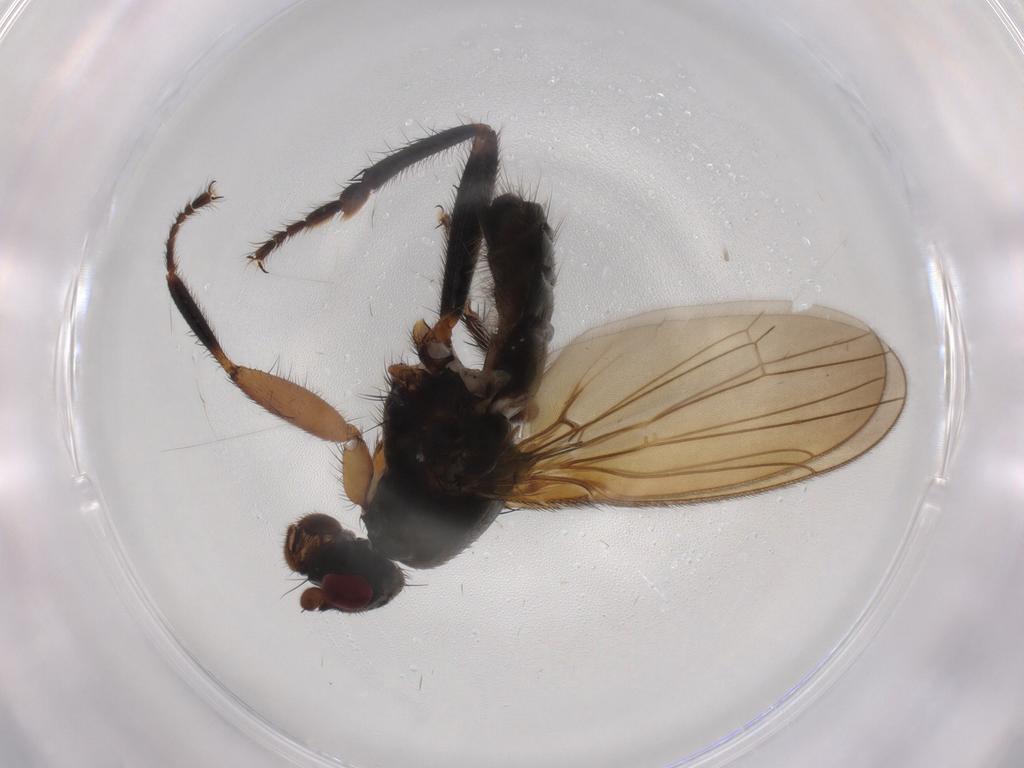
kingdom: Animalia
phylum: Arthropoda
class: Insecta
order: Diptera
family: Sphaeroceridae
